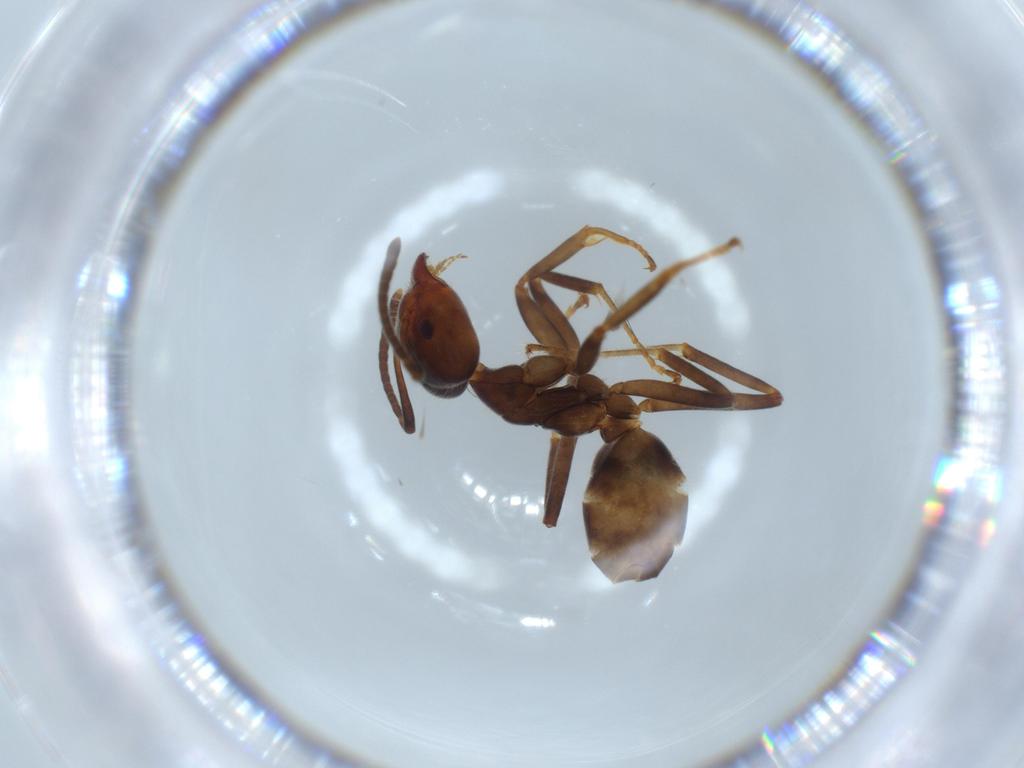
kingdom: Animalia
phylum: Arthropoda
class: Insecta
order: Hymenoptera
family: Formicidae
